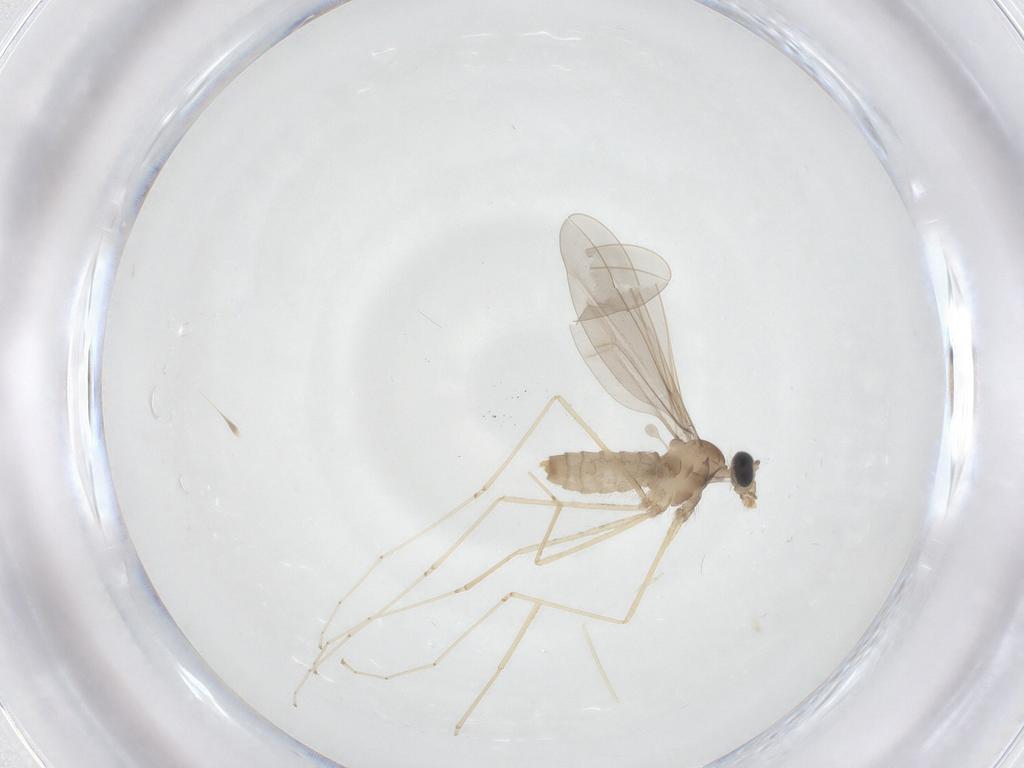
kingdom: Animalia
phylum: Arthropoda
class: Insecta
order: Diptera
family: Cecidomyiidae
